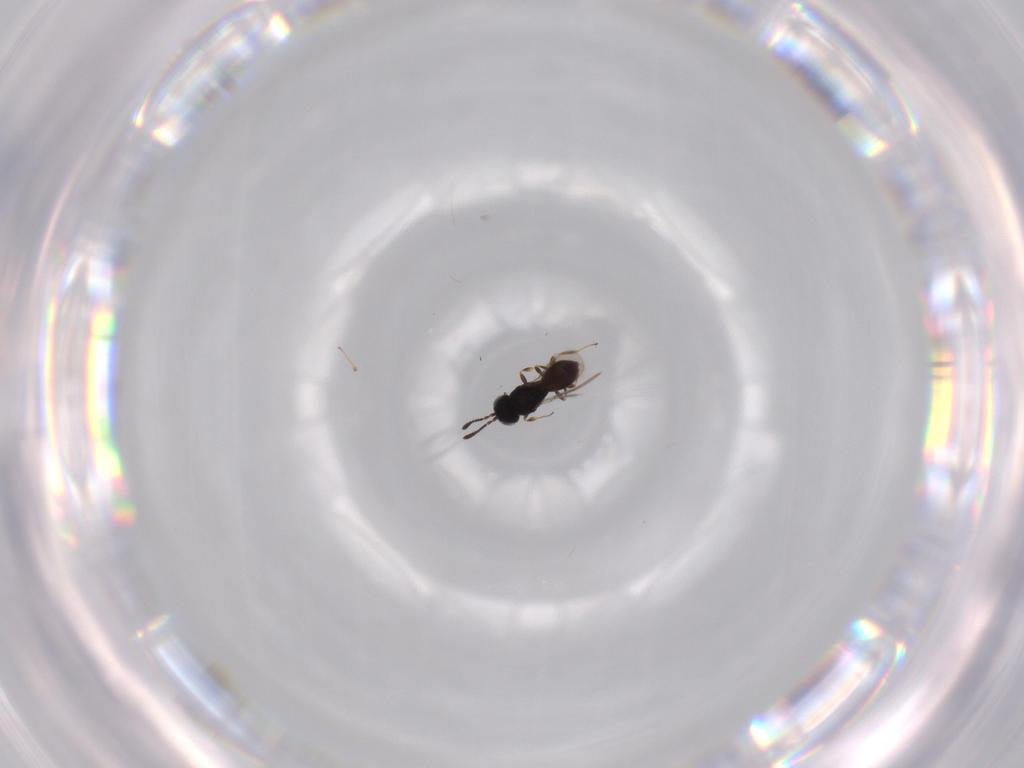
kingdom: Animalia
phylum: Arthropoda
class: Insecta
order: Hymenoptera
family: Scelionidae
